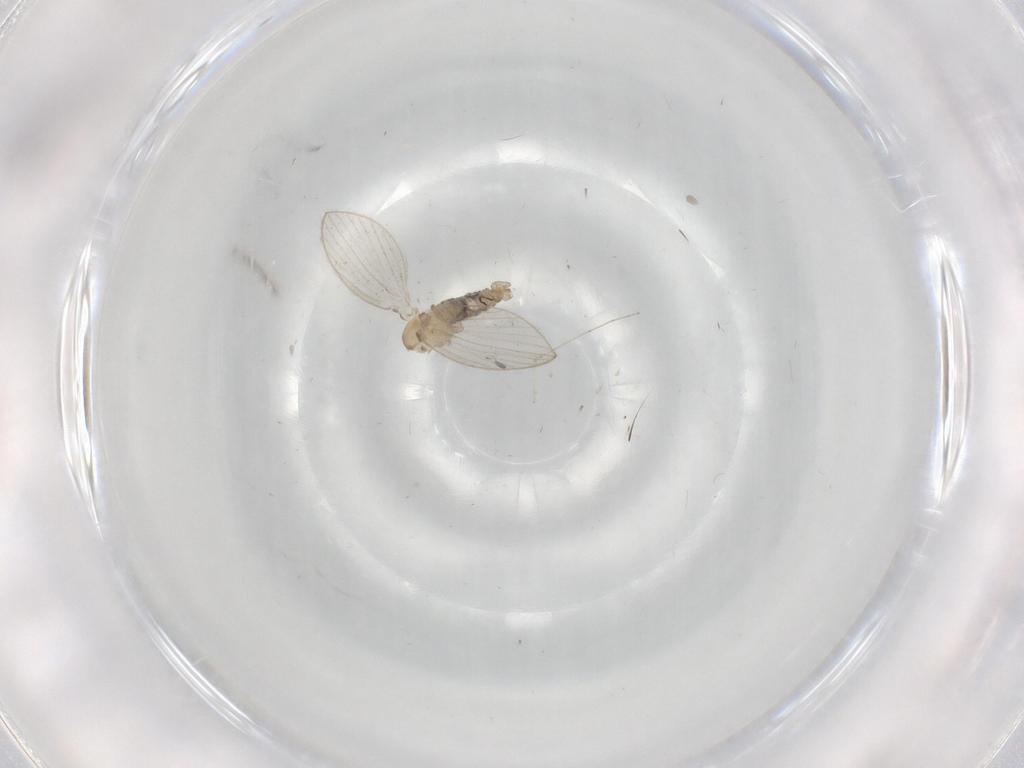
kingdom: Animalia
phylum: Arthropoda
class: Insecta
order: Diptera
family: Psychodidae
